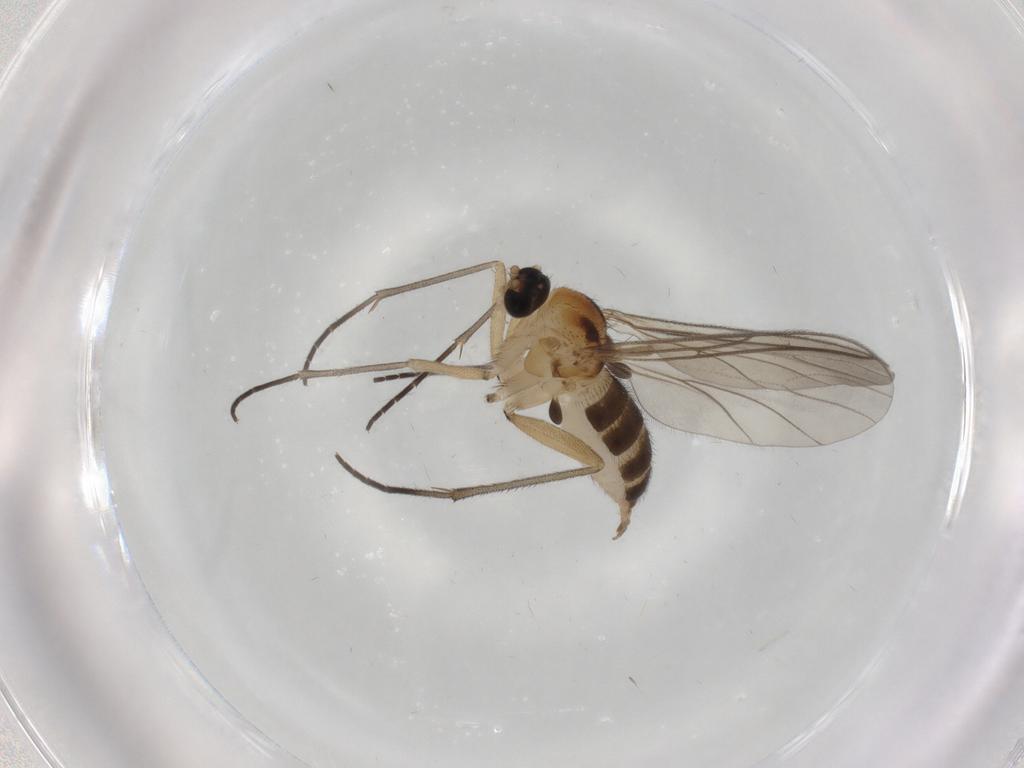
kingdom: Animalia
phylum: Arthropoda
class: Insecta
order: Diptera
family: Sciaridae
